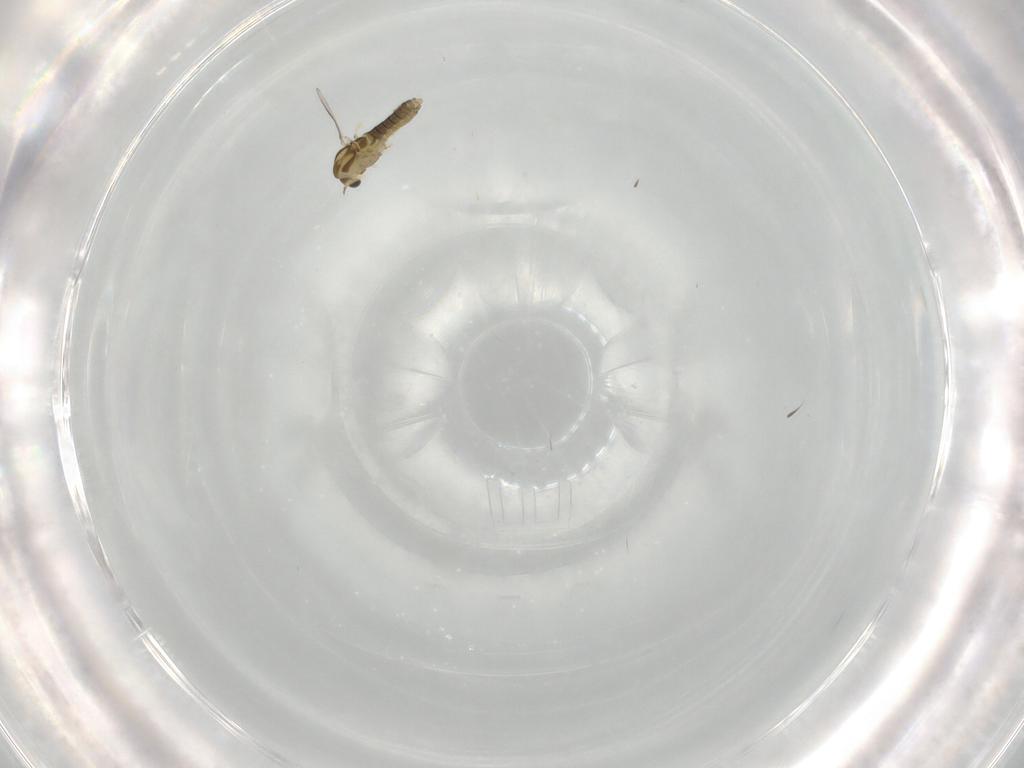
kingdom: Animalia
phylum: Arthropoda
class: Insecta
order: Diptera
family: Chironomidae
